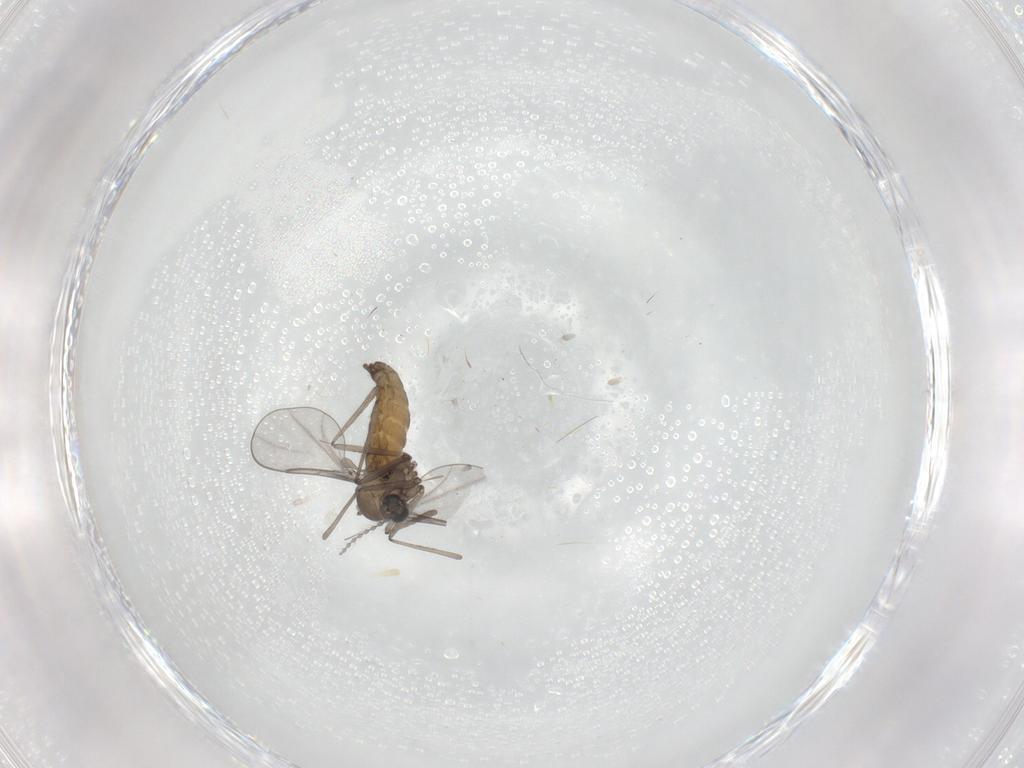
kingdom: Animalia
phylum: Arthropoda
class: Insecta
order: Diptera
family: Cecidomyiidae
